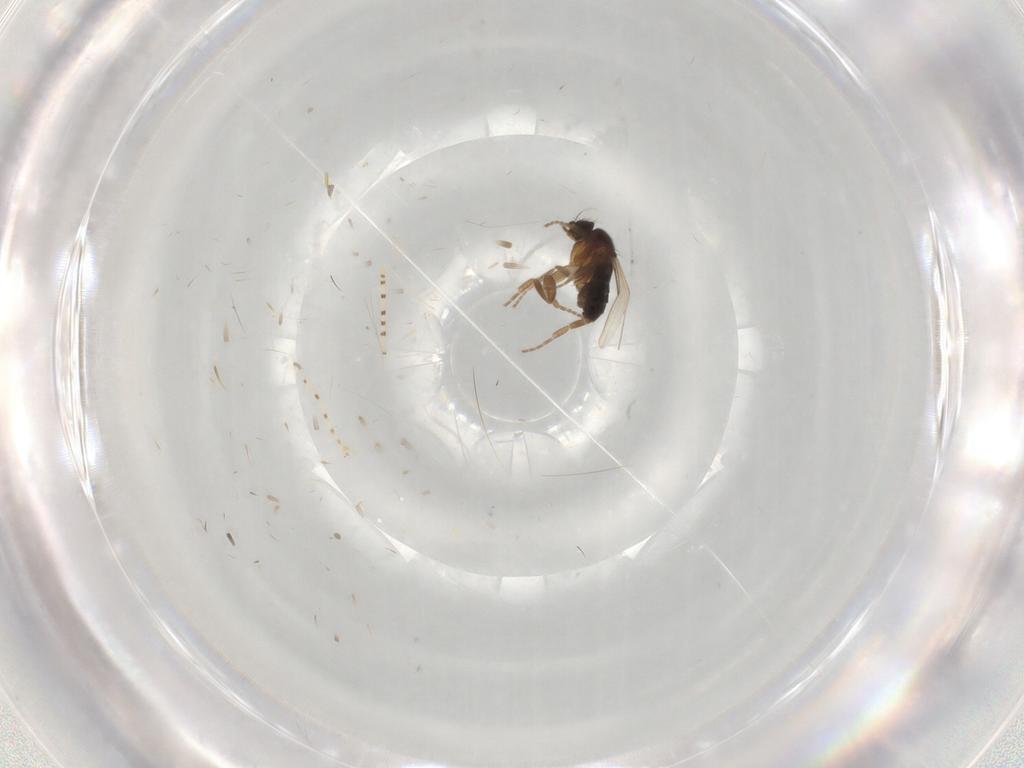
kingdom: Animalia
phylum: Arthropoda
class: Insecta
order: Diptera
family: Phoridae
